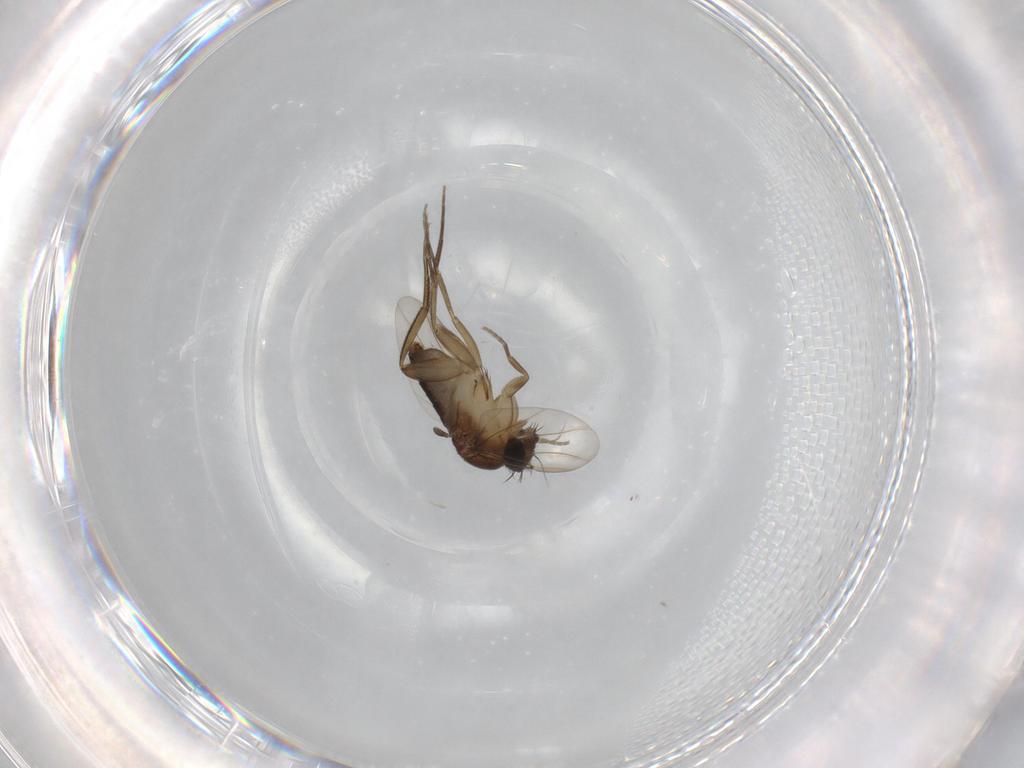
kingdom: Animalia
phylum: Arthropoda
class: Insecta
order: Diptera
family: Phoridae
